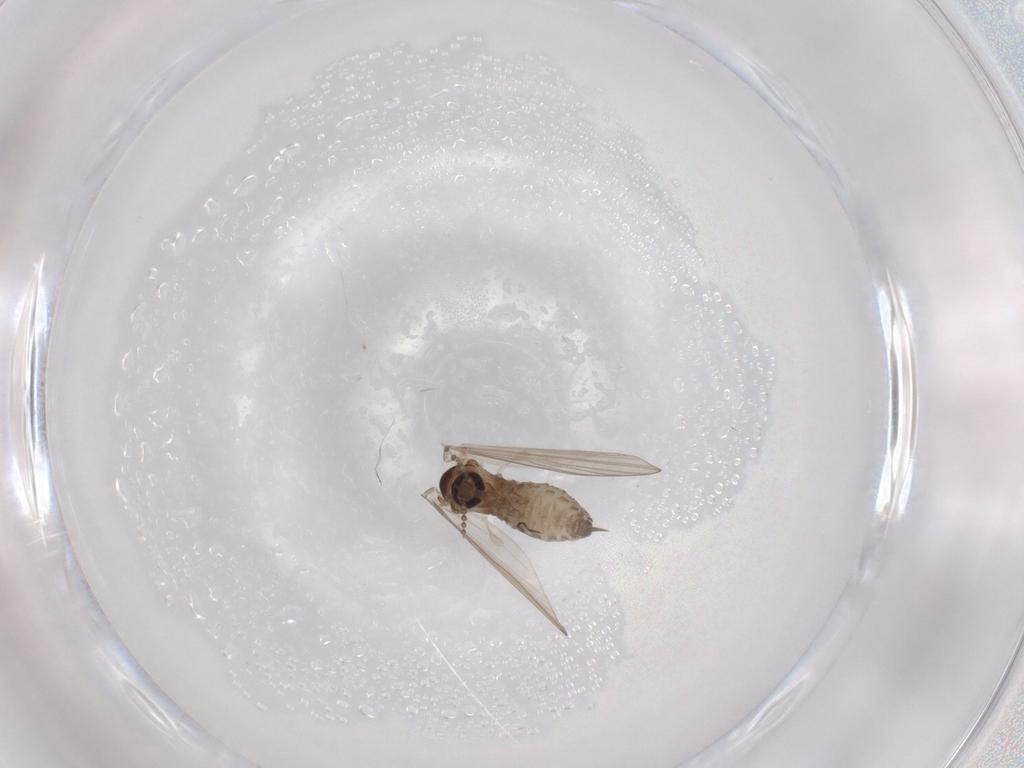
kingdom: Animalia
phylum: Arthropoda
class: Insecta
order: Diptera
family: Psychodidae
